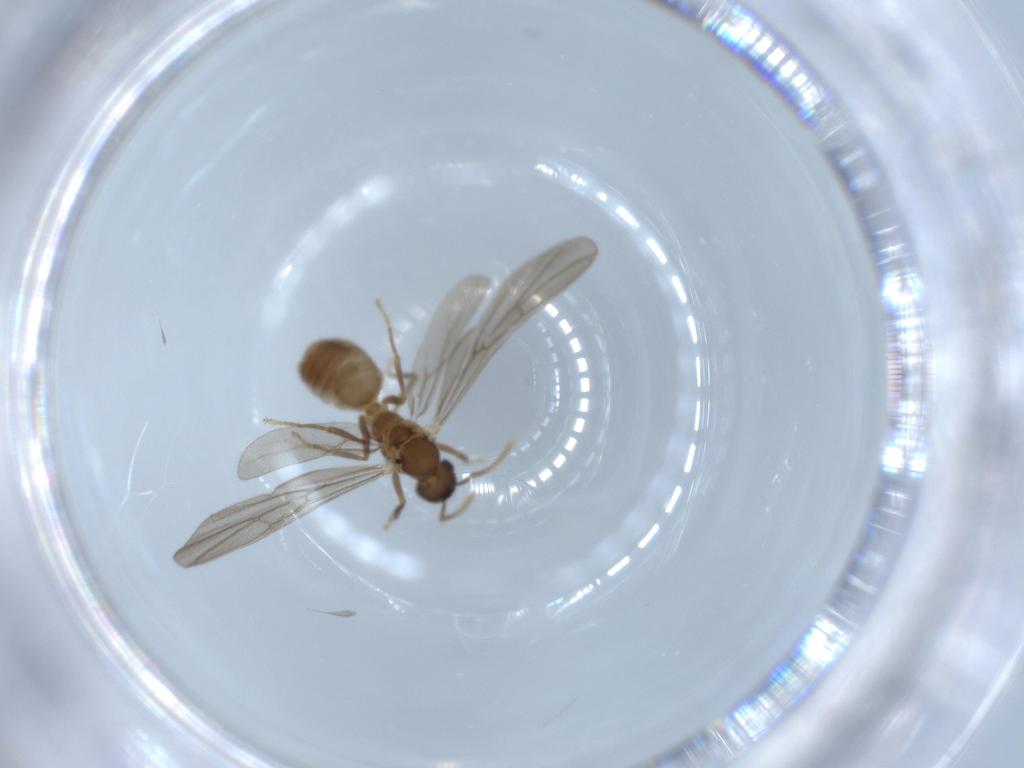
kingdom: Animalia
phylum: Arthropoda
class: Insecta
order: Hymenoptera
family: Formicidae
